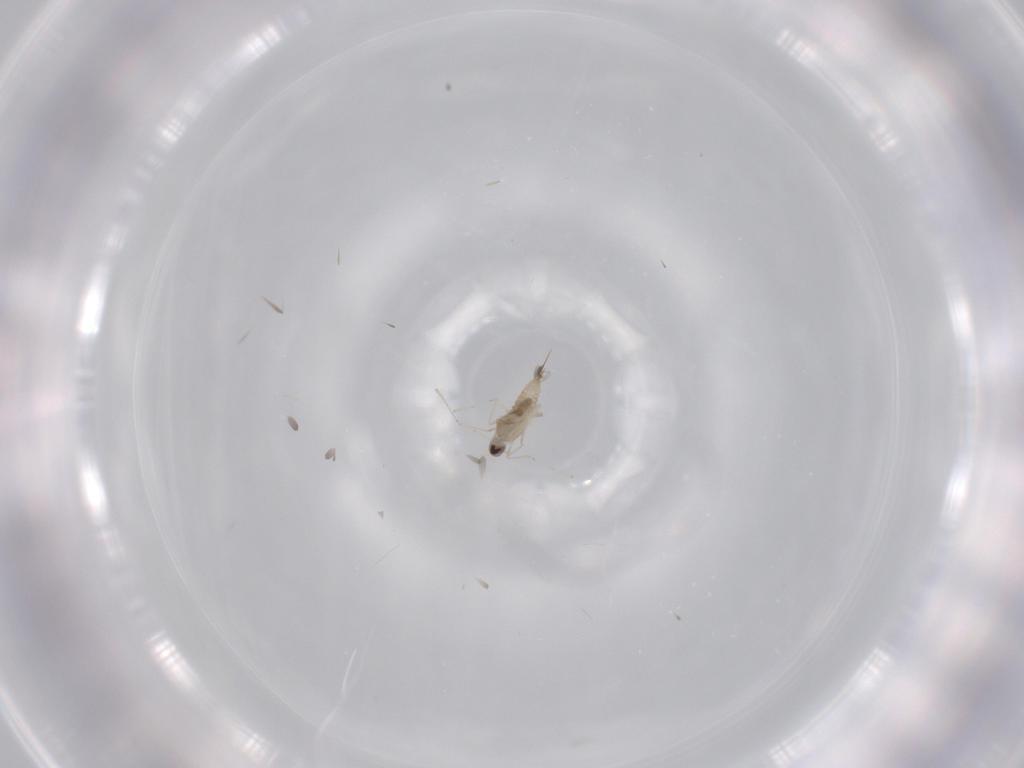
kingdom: Animalia
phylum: Arthropoda
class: Insecta
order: Diptera
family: Cecidomyiidae
